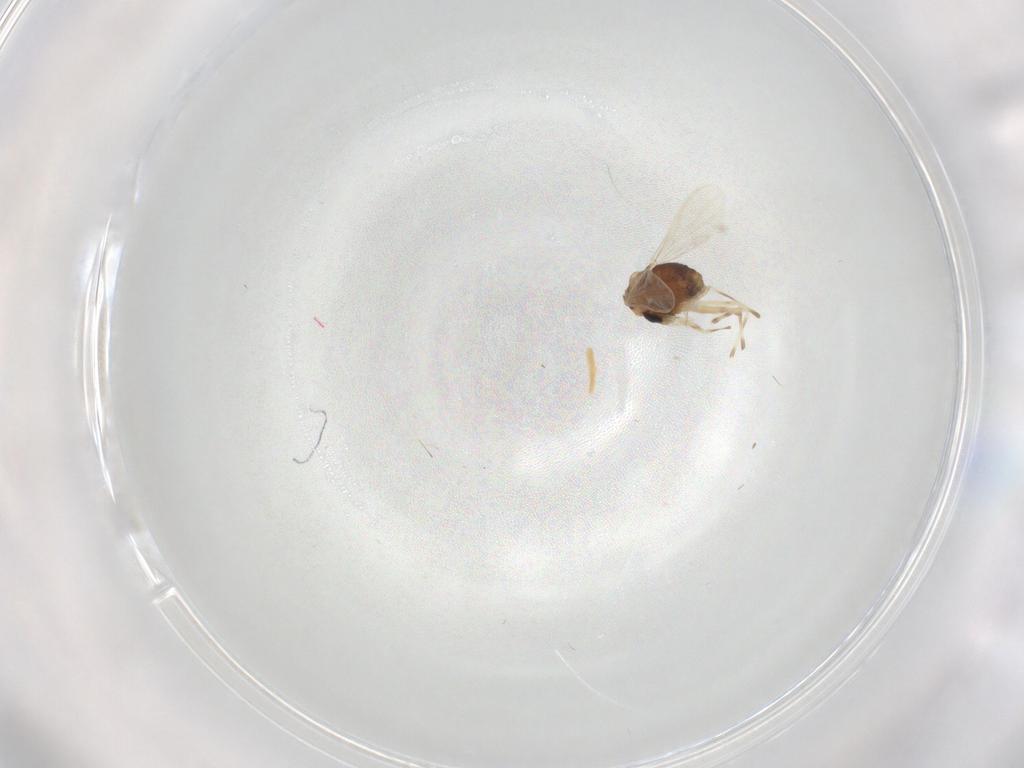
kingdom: Animalia
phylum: Arthropoda
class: Insecta
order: Diptera
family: Chironomidae
